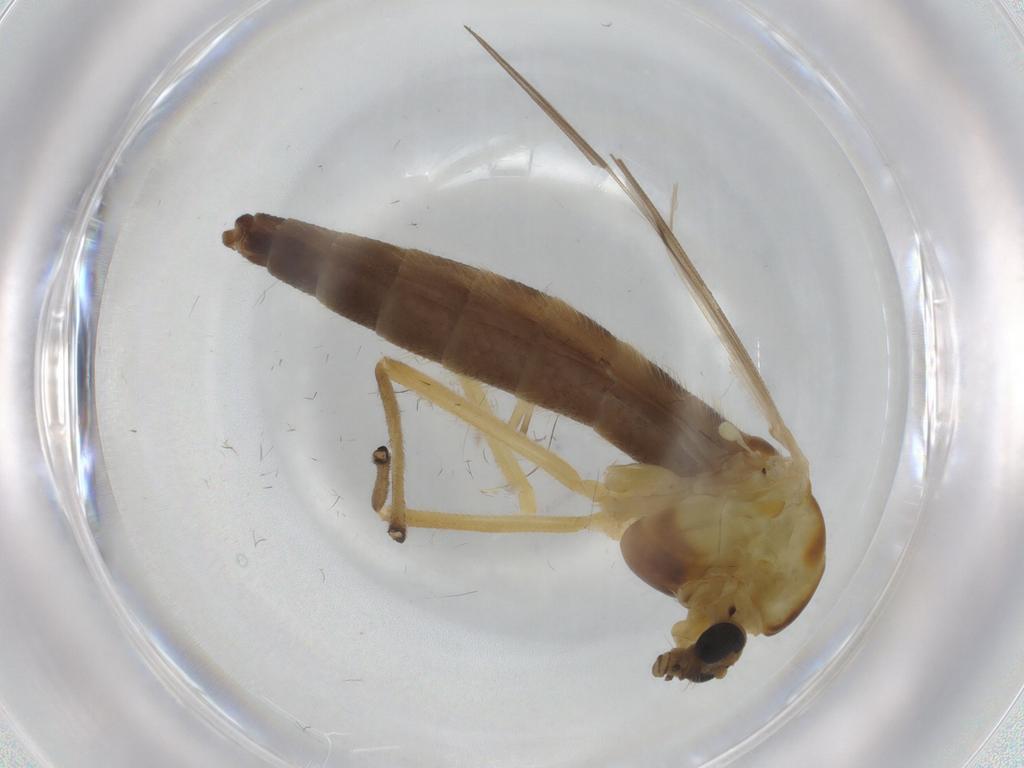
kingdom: Animalia
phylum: Arthropoda
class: Insecta
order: Diptera
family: Chironomidae
